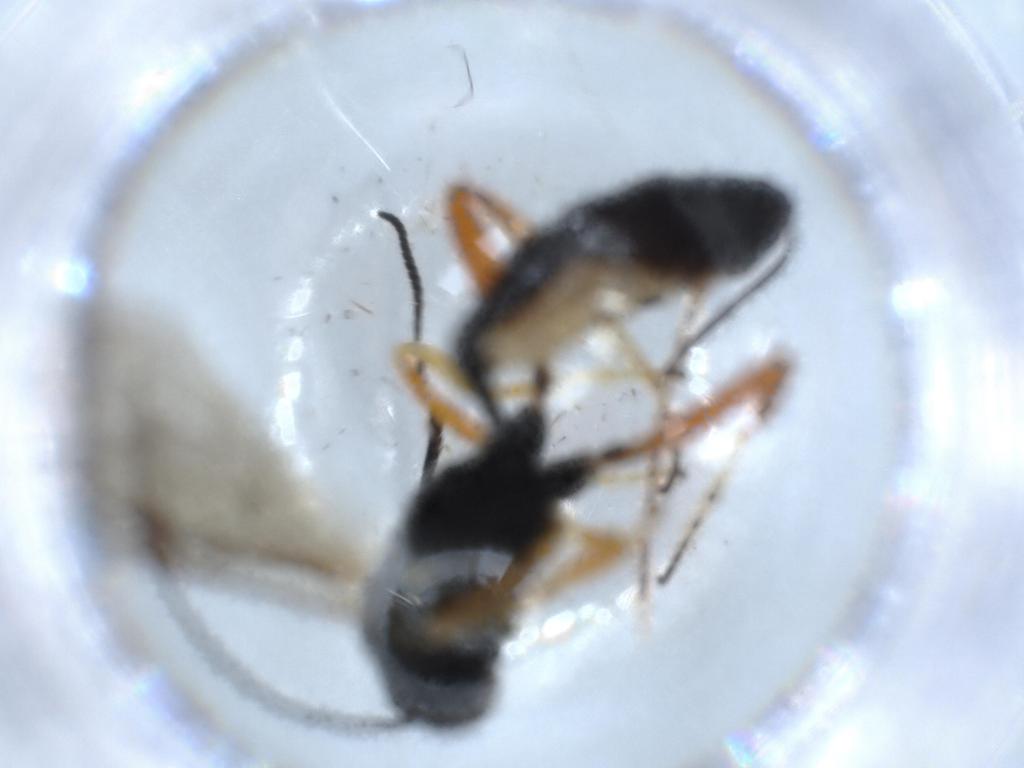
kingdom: Animalia
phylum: Arthropoda
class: Insecta
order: Hymenoptera
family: Ichneumonidae
